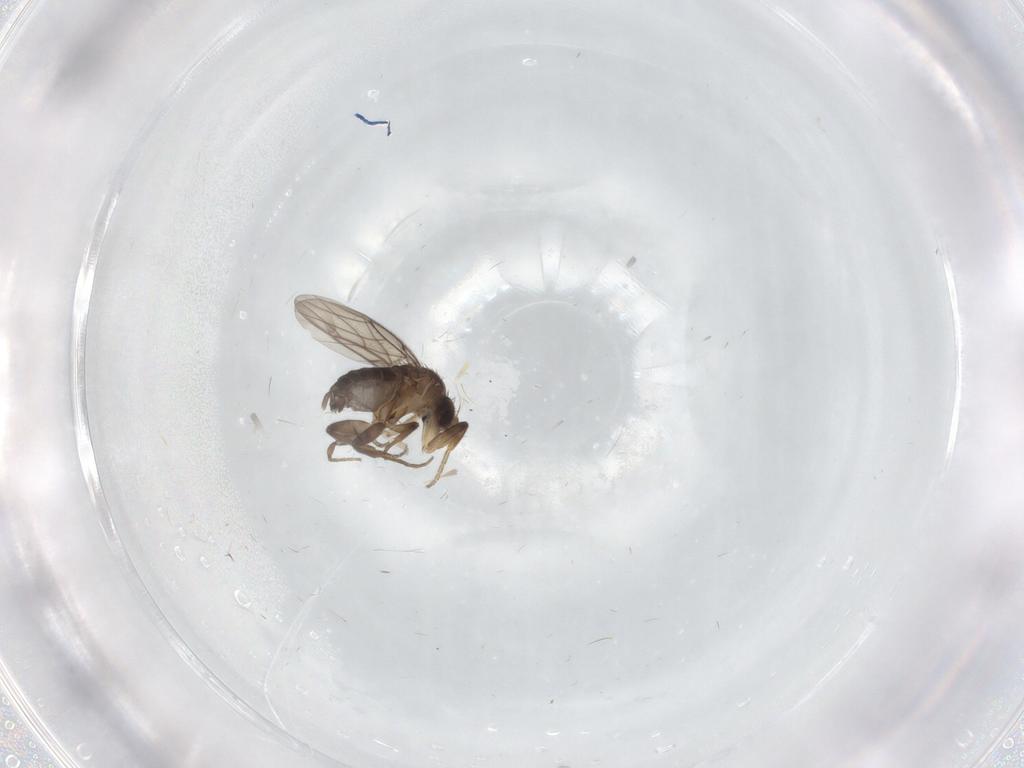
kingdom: Animalia
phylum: Arthropoda
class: Insecta
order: Diptera
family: Phoridae
